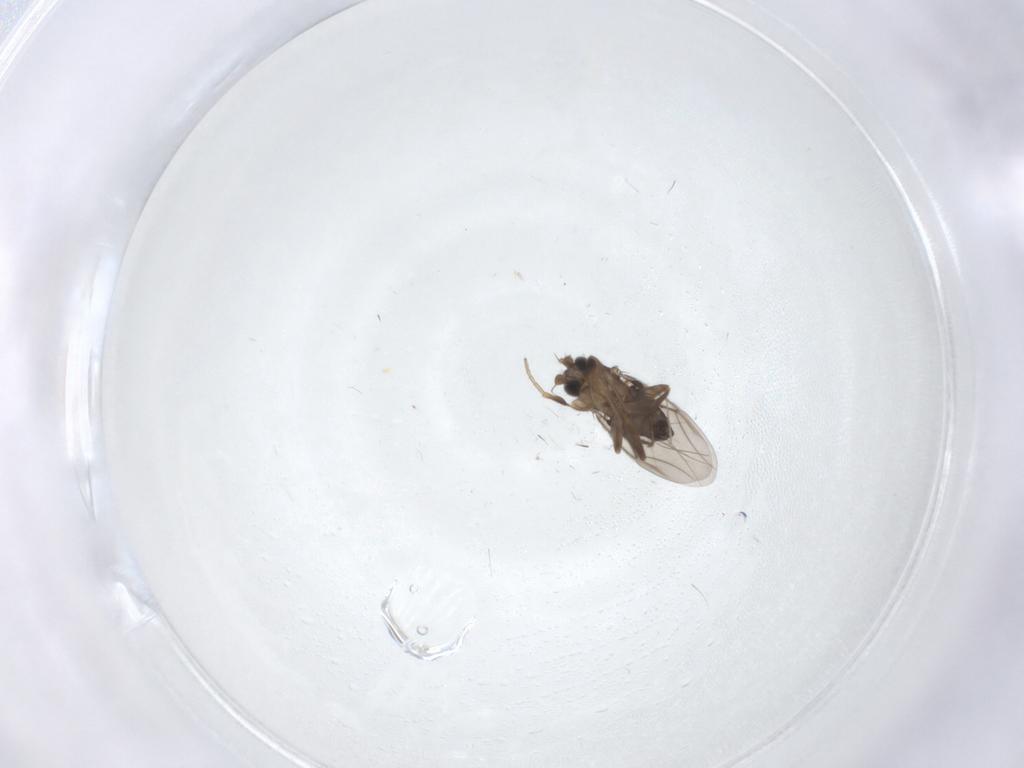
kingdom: Animalia
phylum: Arthropoda
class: Insecta
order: Diptera
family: Phoridae
